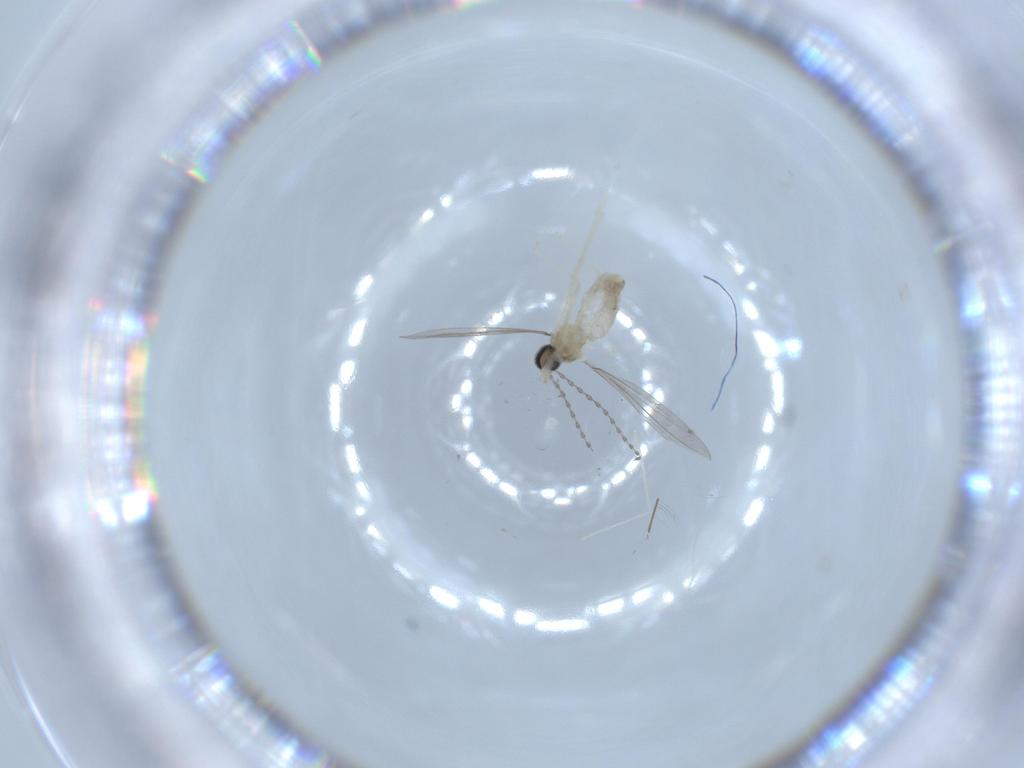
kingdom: Animalia
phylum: Arthropoda
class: Insecta
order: Diptera
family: Cecidomyiidae
